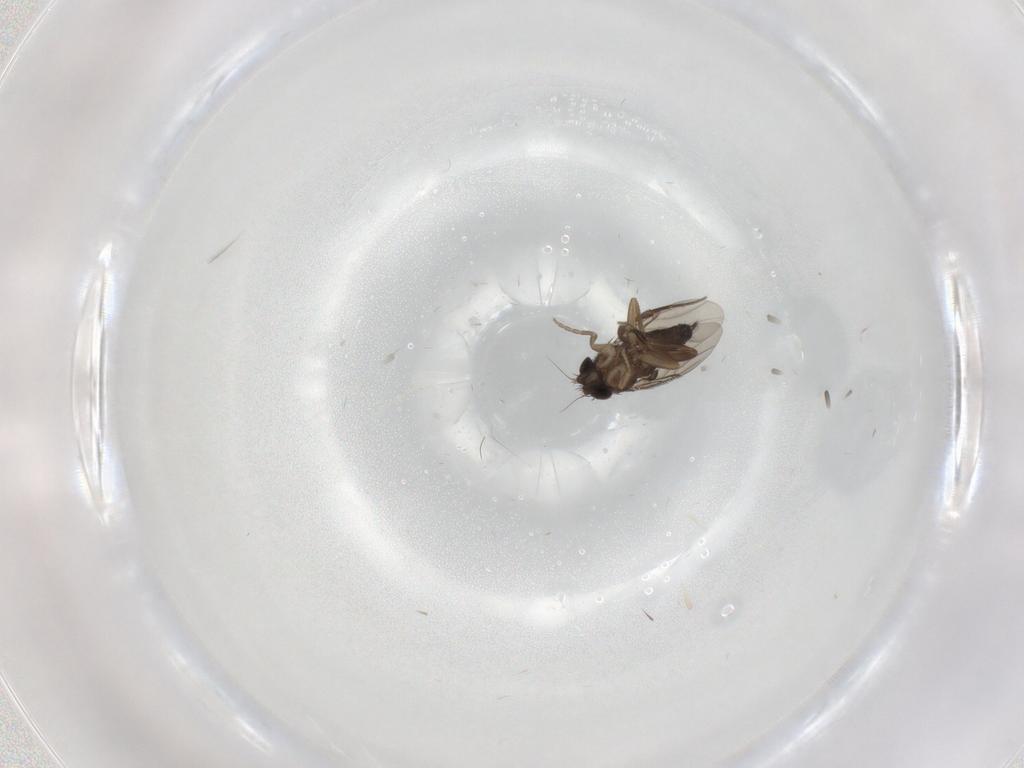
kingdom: Animalia
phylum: Arthropoda
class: Insecta
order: Diptera
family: Phoridae
